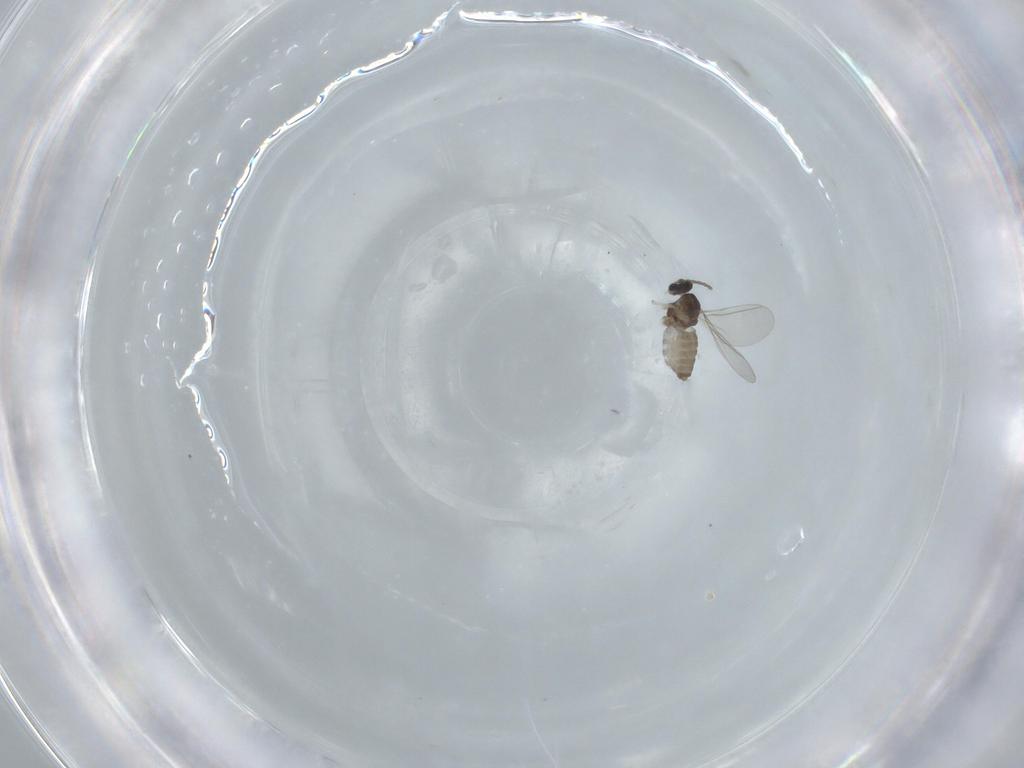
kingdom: Animalia
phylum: Arthropoda
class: Insecta
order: Diptera
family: Cecidomyiidae
